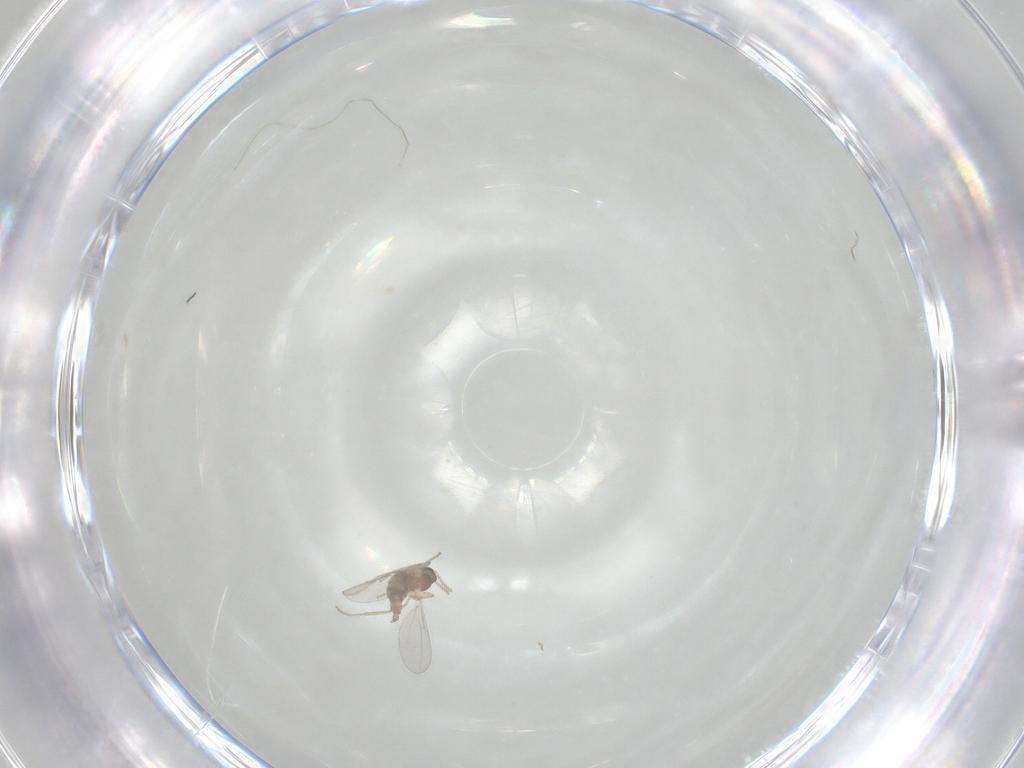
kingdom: Animalia
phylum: Arthropoda
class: Insecta
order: Diptera
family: Cecidomyiidae
